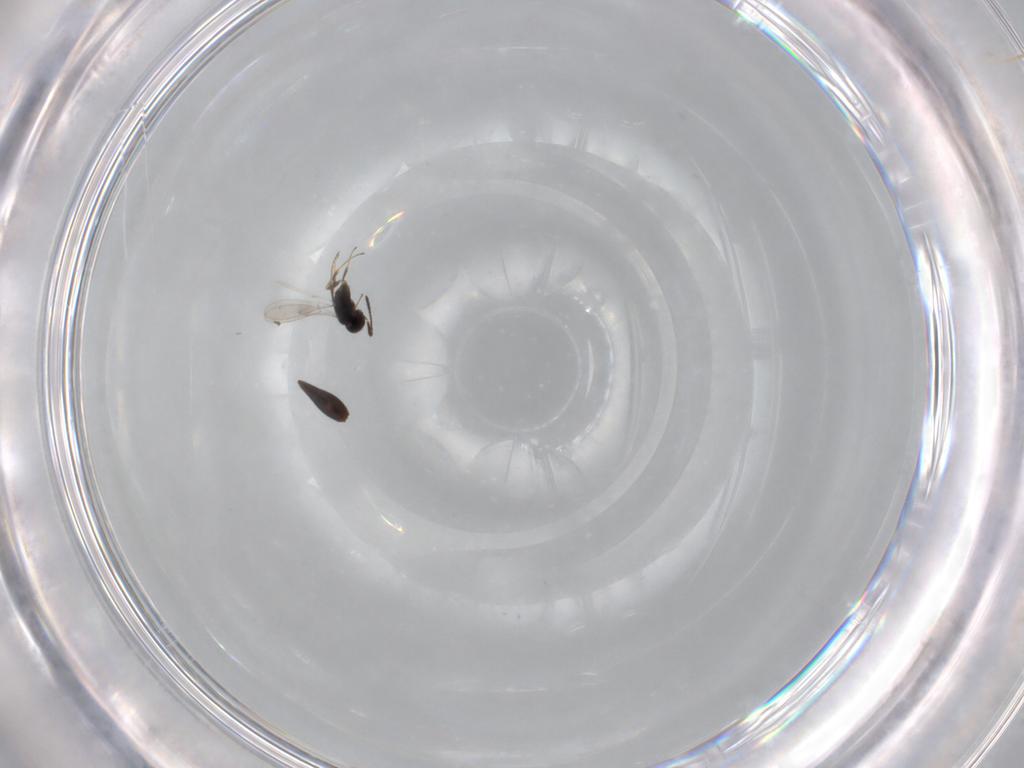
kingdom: Animalia
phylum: Arthropoda
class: Insecta
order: Hymenoptera
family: Scelionidae
